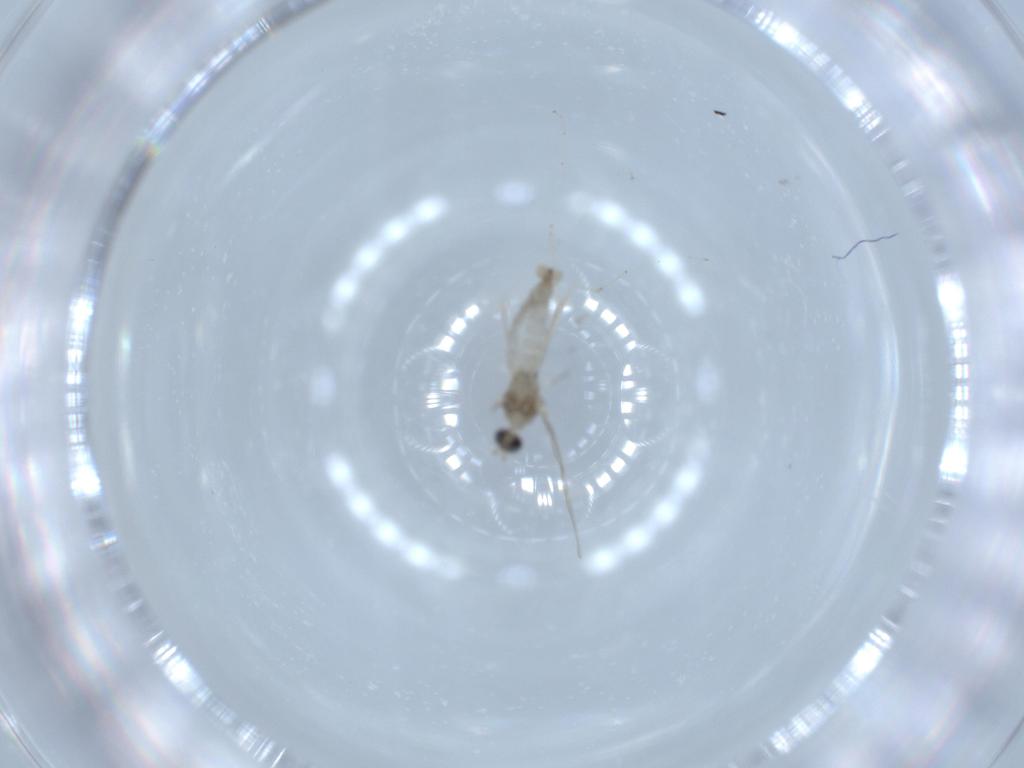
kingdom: Animalia
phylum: Arthropoda
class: Insecta
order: Diptera
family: Cecidomyiidae
